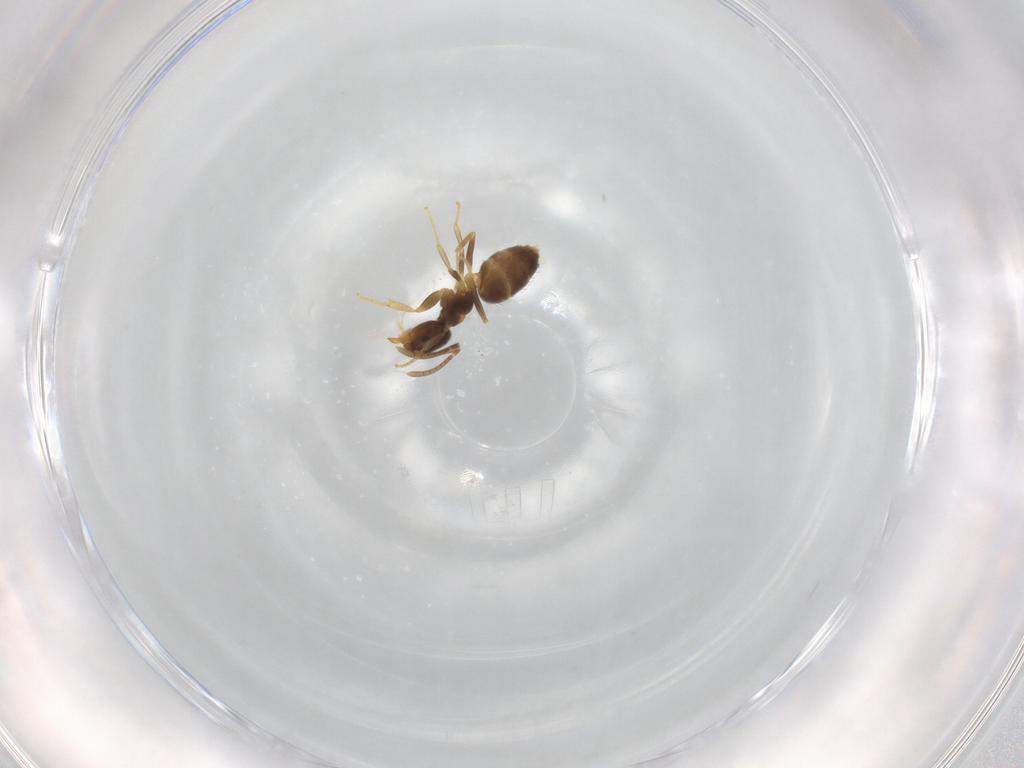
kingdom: Animalia
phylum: Arthropoda
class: Insecta
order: Hymenoptera
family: Formicidae
